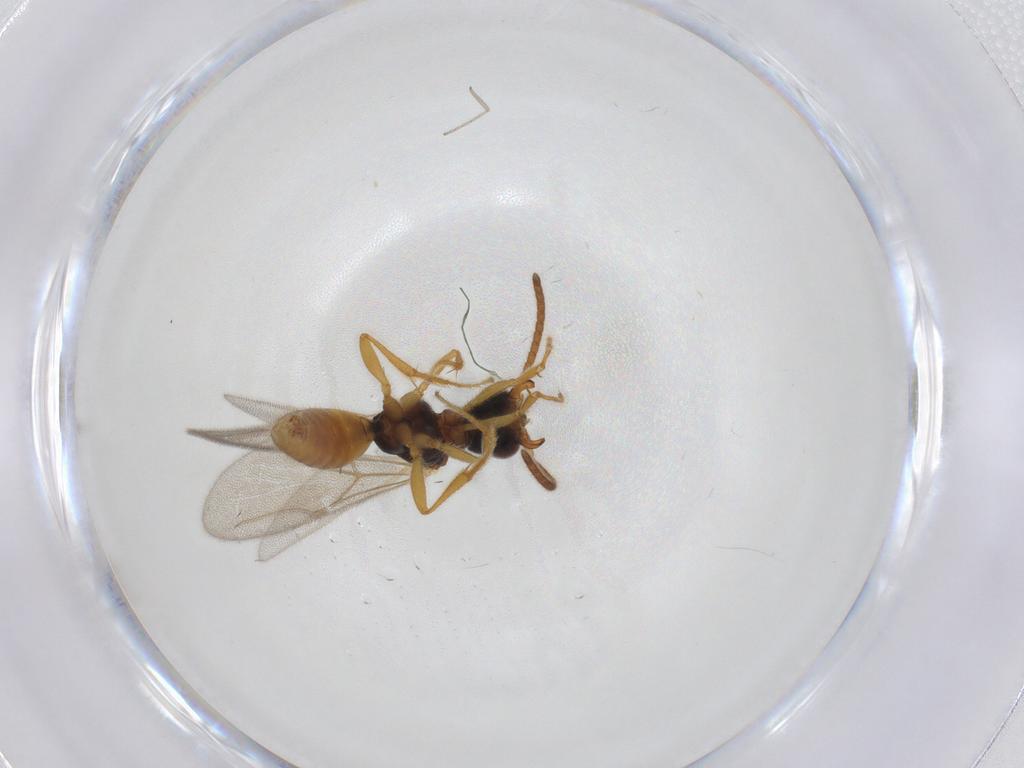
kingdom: Animalia
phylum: Arthropoda
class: Insecta
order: Hymenoptera
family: Bethylidae
